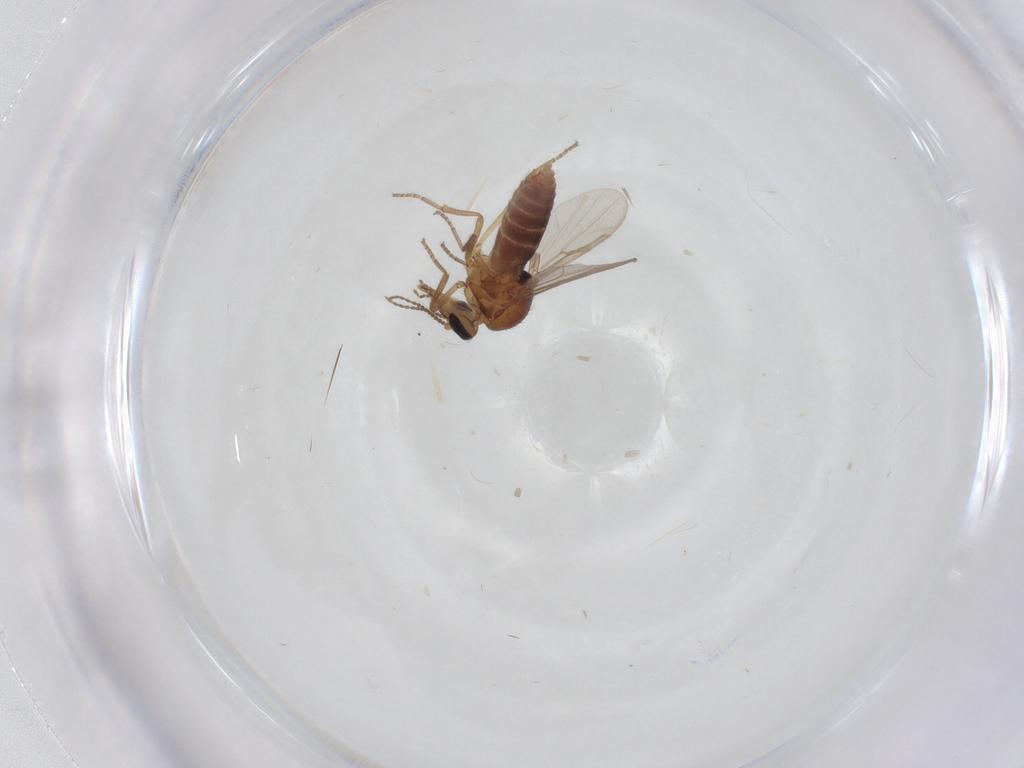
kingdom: Animalia
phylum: Arthropoda
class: Insecta
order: Diptera
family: Ceratopogonidae
